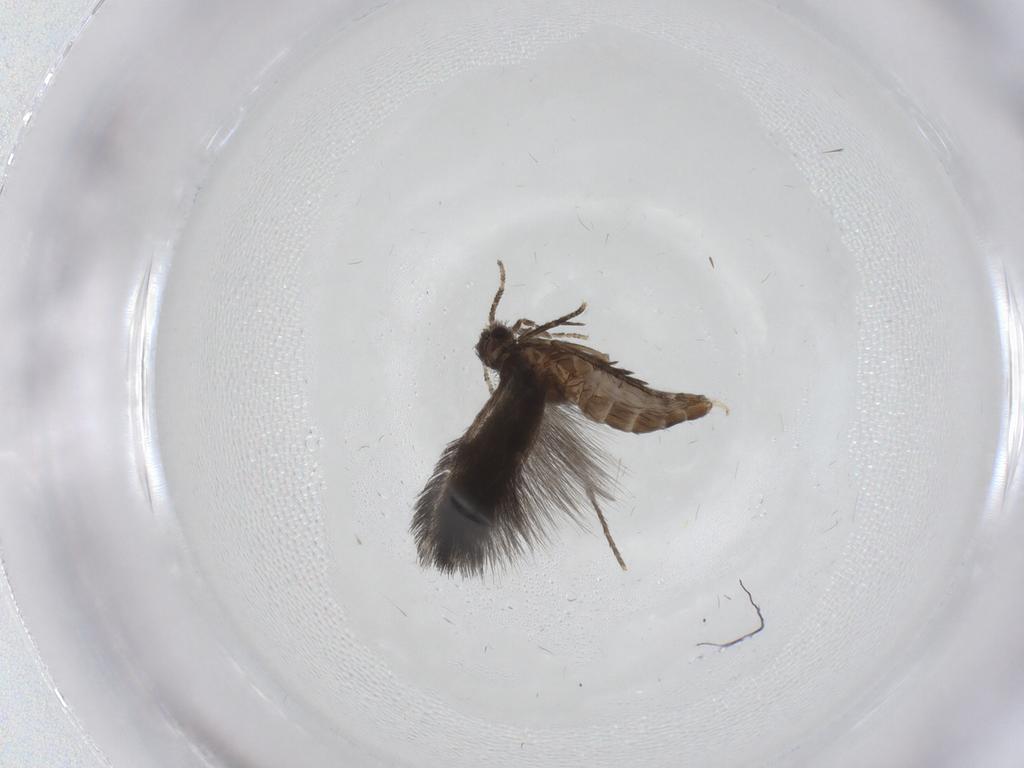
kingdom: Animalia
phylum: Arthropoda
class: Insecta
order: Trichoptera
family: Hydroptilidae
